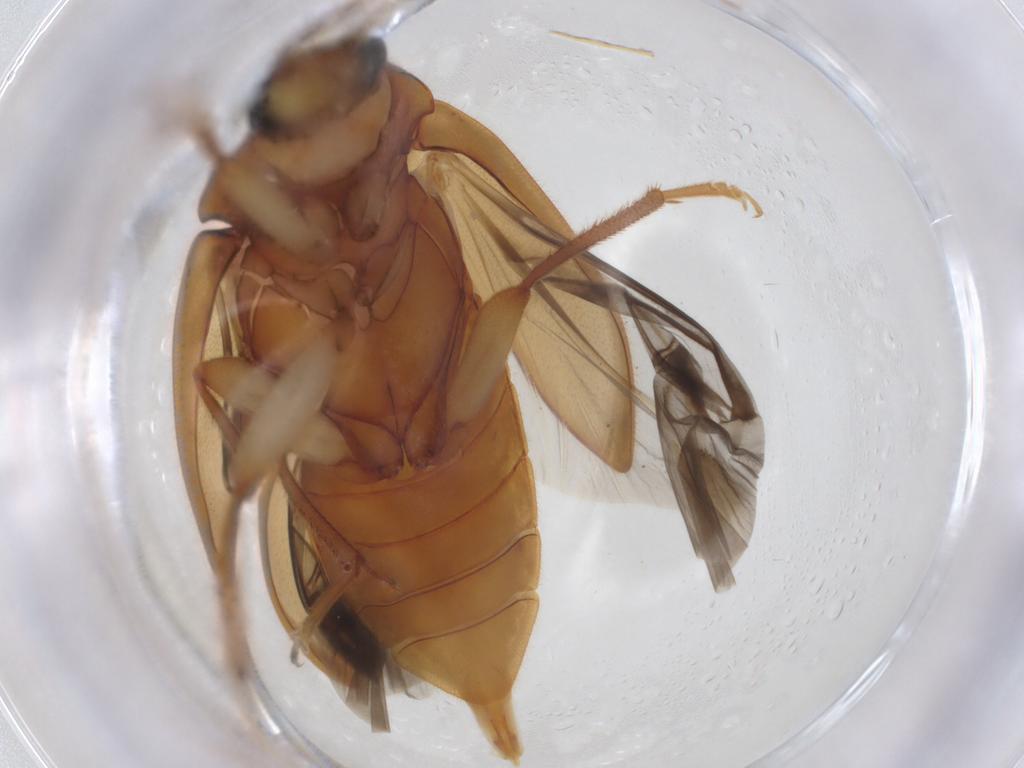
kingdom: Animalia
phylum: Arthropoda
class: Insecta
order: Coleoptera
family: Ptilodactylidae
